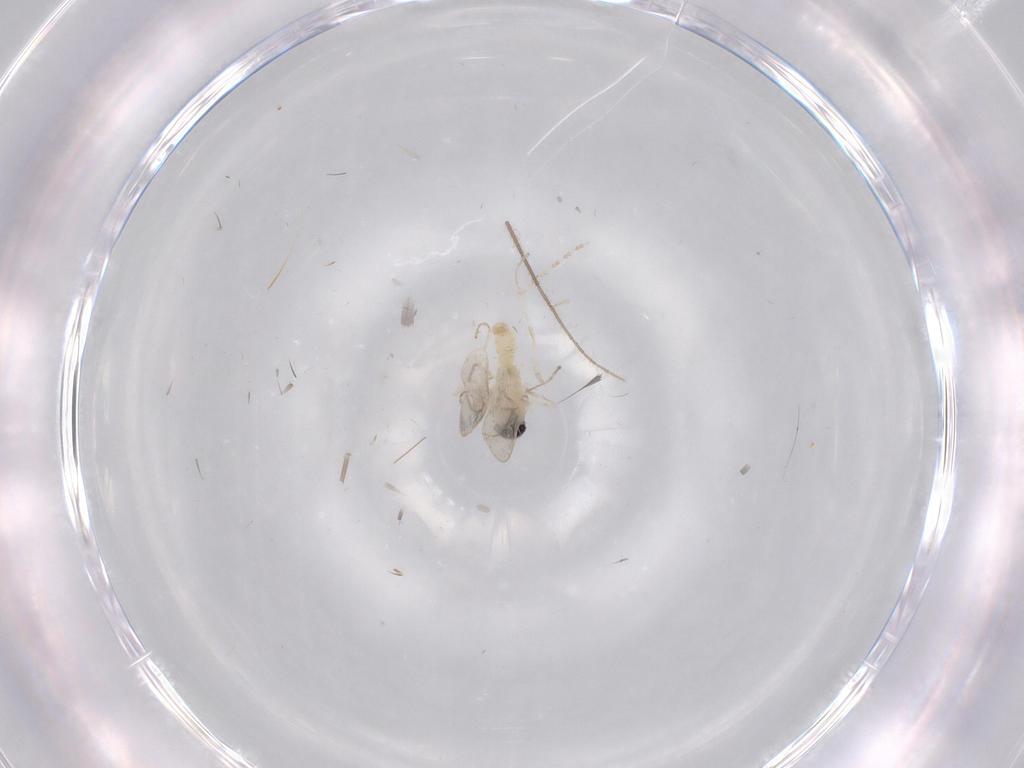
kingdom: Animalia
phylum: Arthropoda
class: Insecta
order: Diptera
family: Cecidomyiidae
